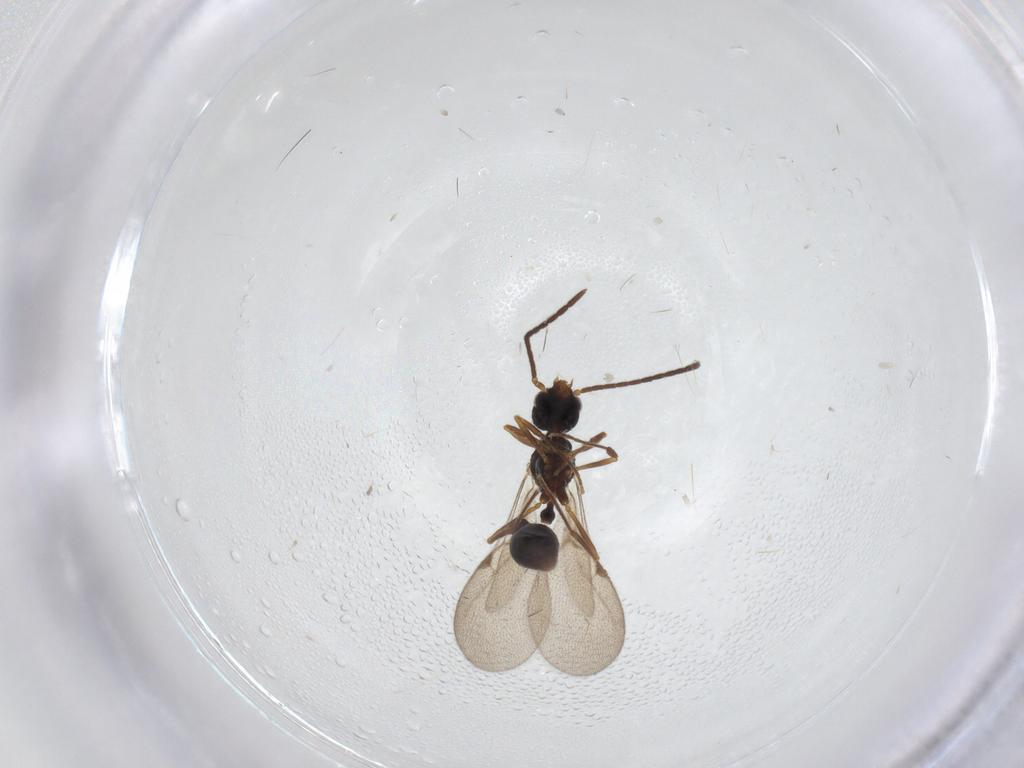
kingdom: Animalia
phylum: Arthropoda
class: Insecta
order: Hymenoptera
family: Formicidae
